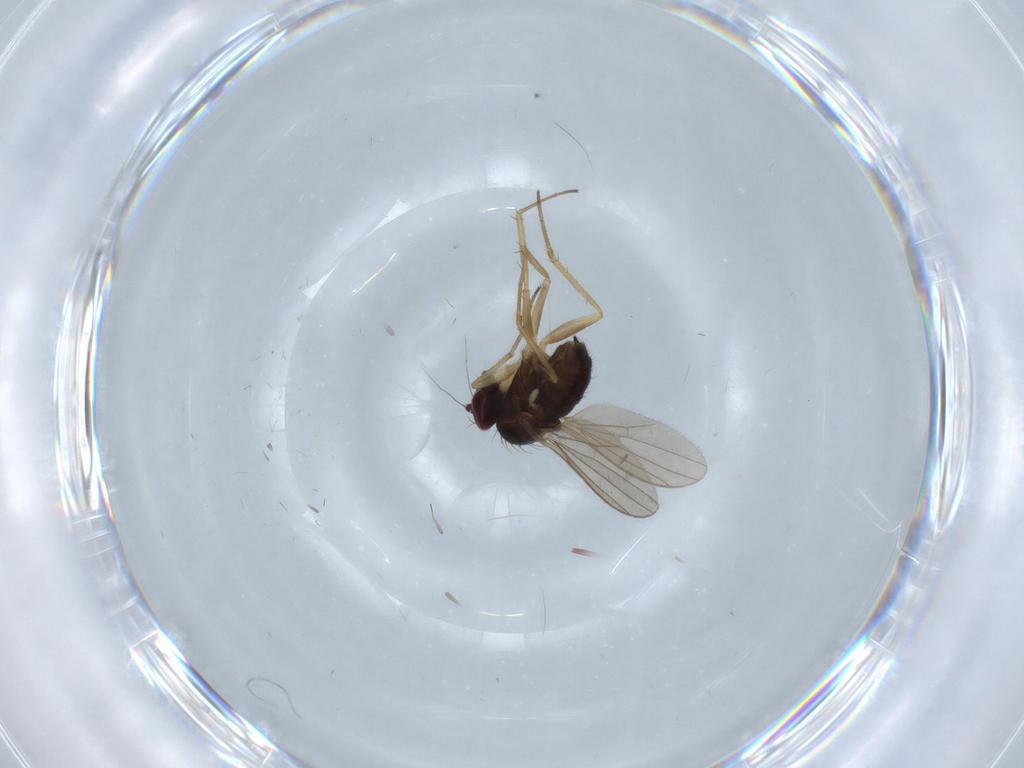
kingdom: Animalia
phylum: Arthropoda
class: Insecta
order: Diptera
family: Dolichopodidae
